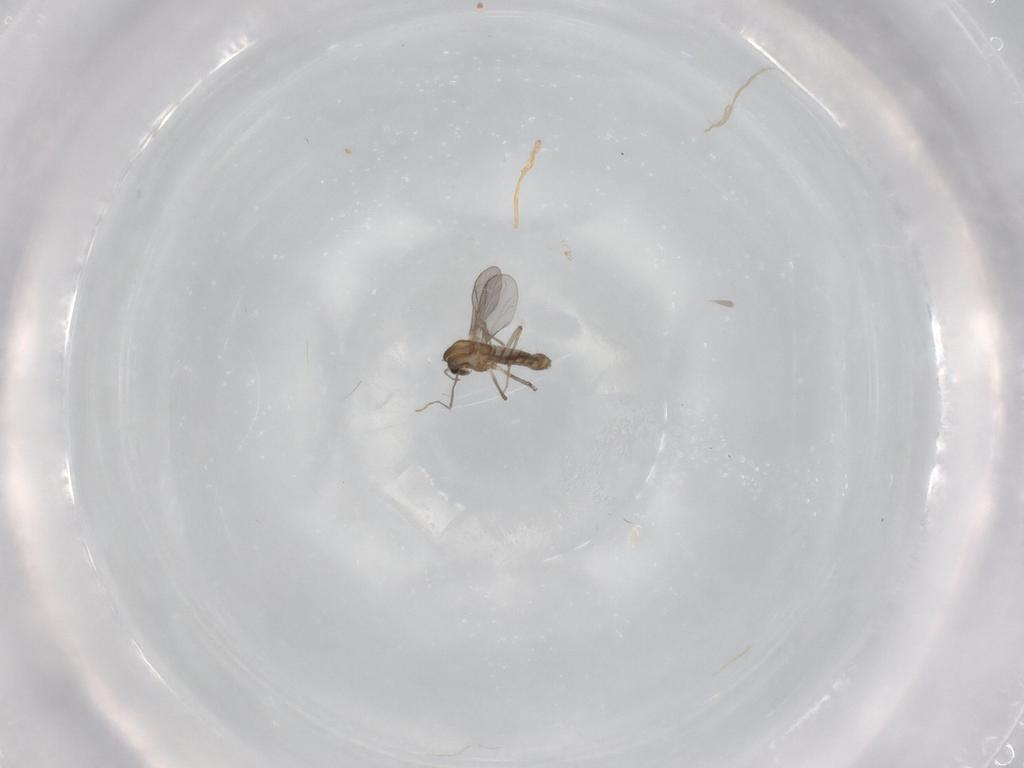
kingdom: Animalia
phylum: Arthropoda
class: Insecta
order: Diptera
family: Chironomidae
